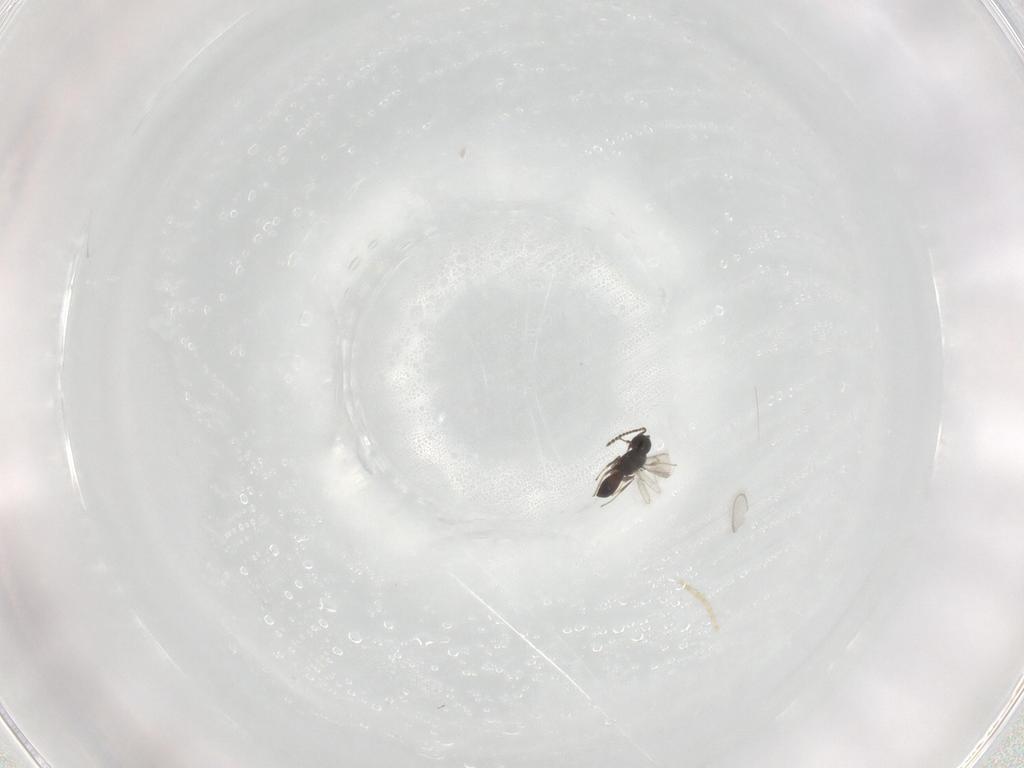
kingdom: Animalia
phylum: Arthropoda
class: Insecta
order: Hymenoptera
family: Scelionidae
